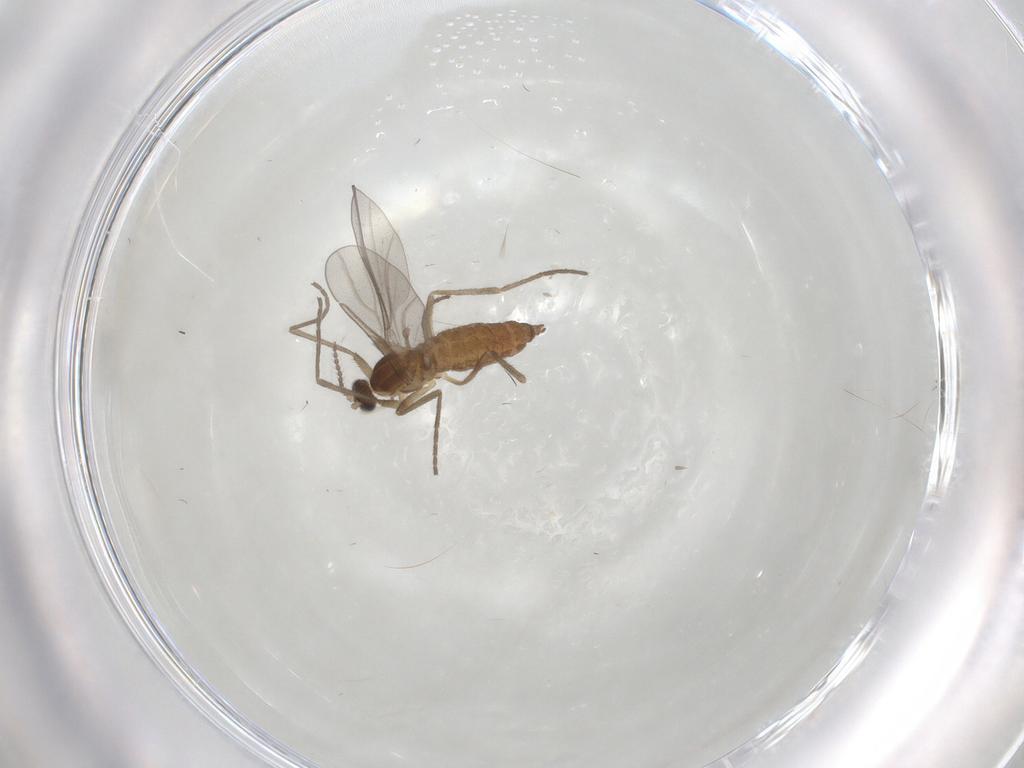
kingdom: Animalia
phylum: Arthropoda
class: Insecta
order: Diptera
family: Cecidomyiidae
